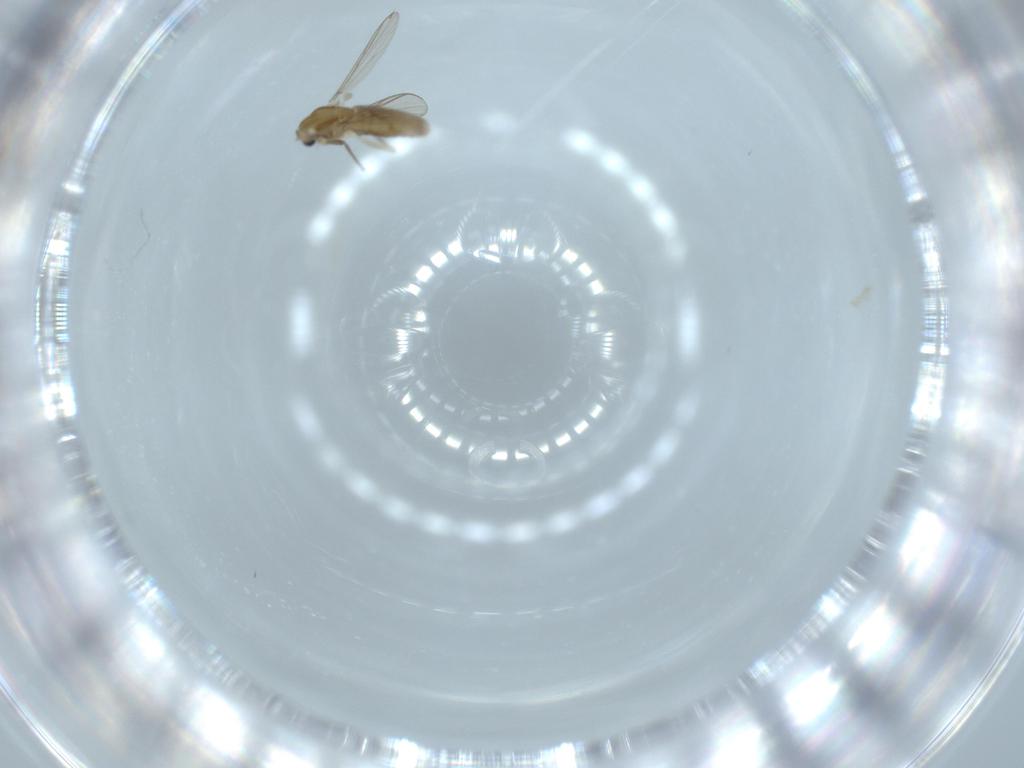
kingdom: Animalia
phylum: Arthropoda
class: Insecta
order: Diptera
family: Chironomidae
